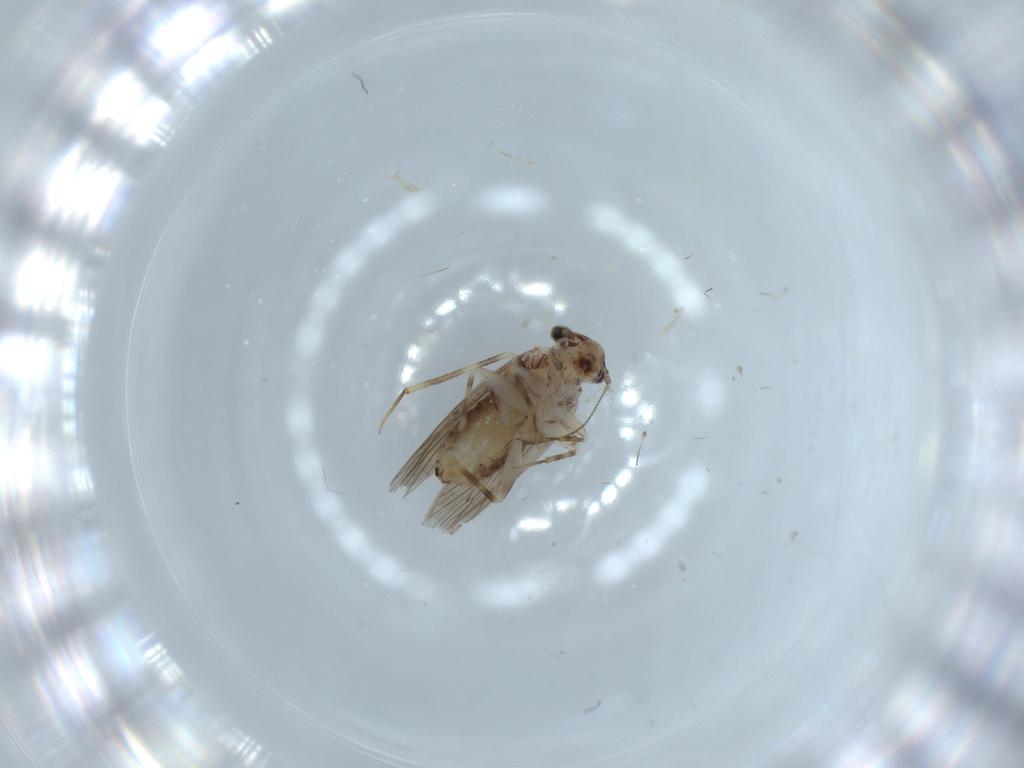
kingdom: Animalia
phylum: Arthropoda
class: Insecta
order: Psocodea
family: Lepidopsocidae
